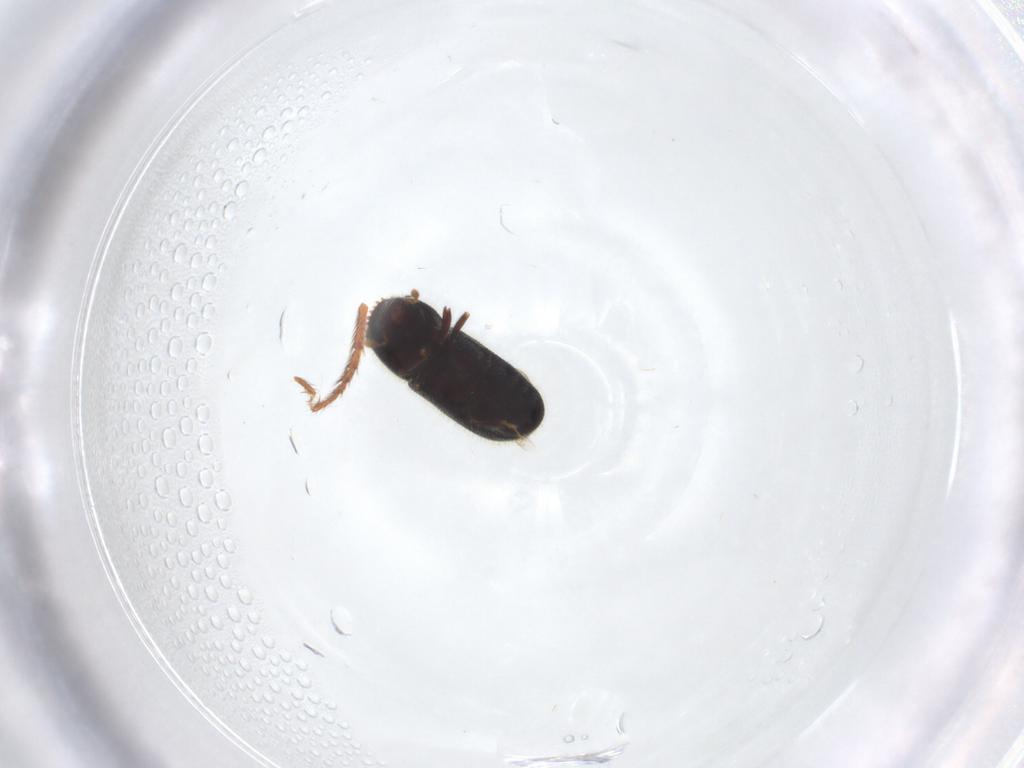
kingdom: Animalia
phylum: Arthropoda
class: Insecta
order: Coleoptera
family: Curculionidae
